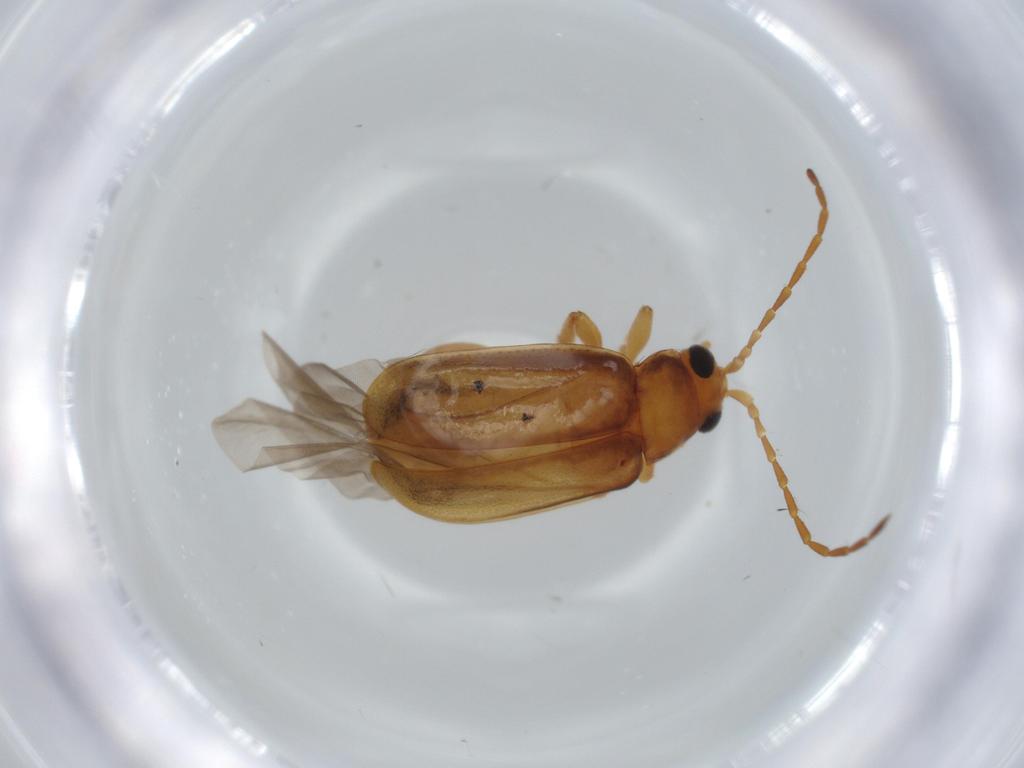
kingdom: Animalia
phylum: Arthropoda
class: Insecta
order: Coleoptera
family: Chrysomelidae
